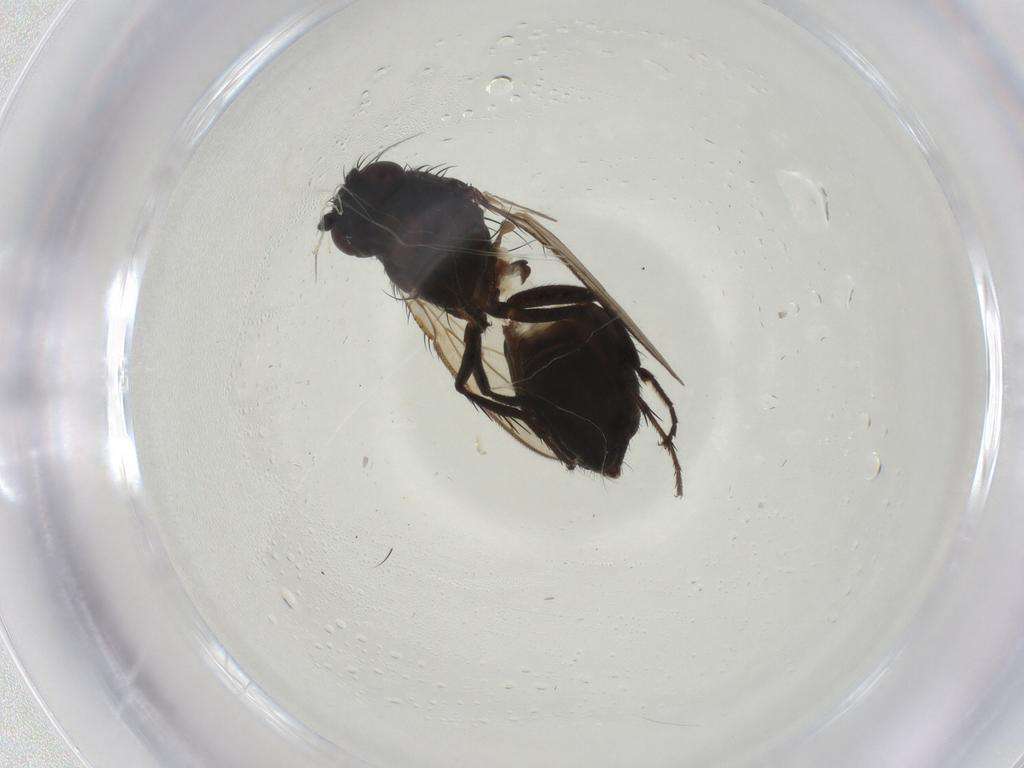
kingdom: Animalia
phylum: Arthropoda
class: Insecta
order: Diptera
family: Sphaeroceridae
